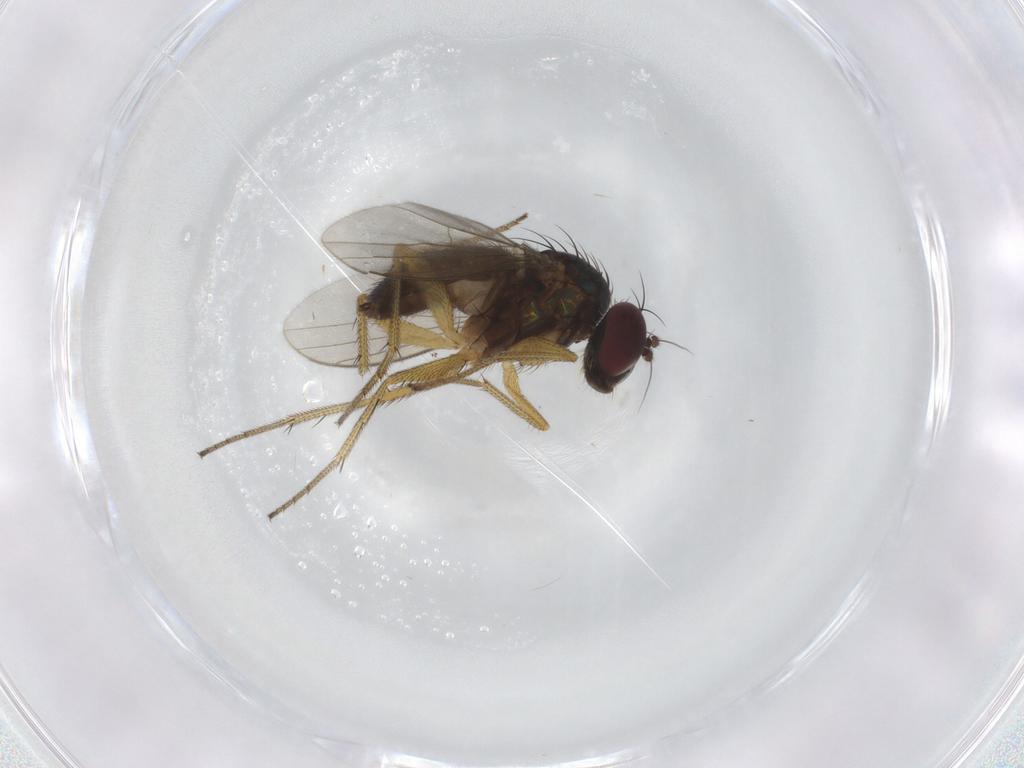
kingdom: Animalia
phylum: Arthropoda
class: Insecta
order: Diptera
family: Dolichopodidae
